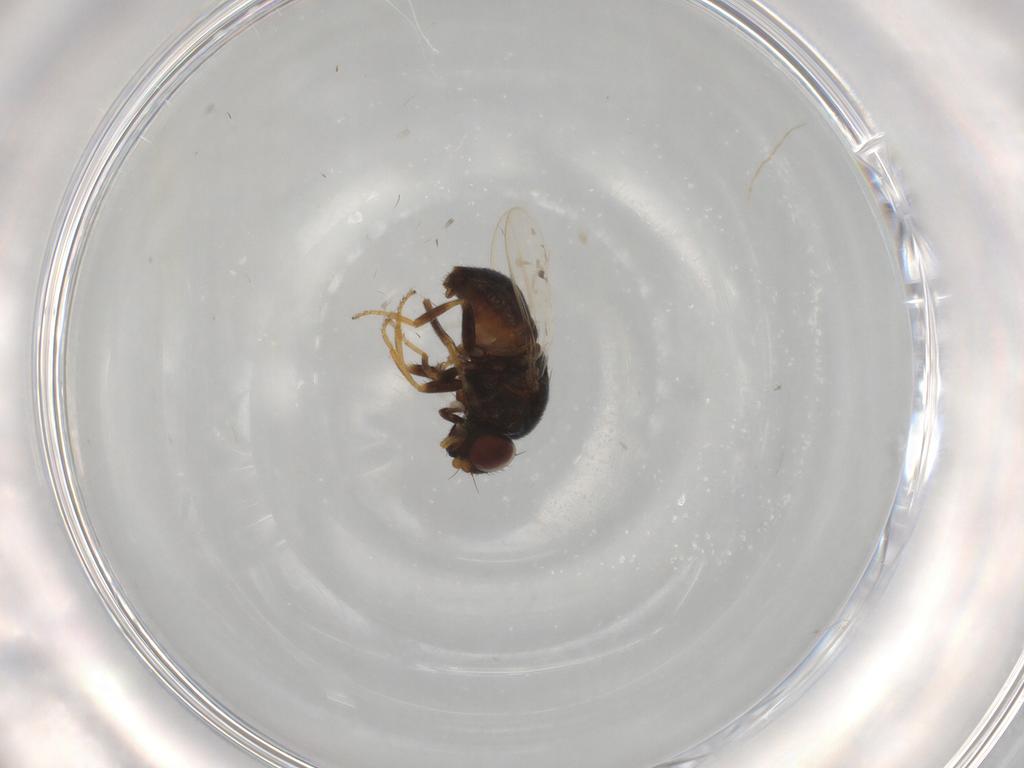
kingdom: Animalia
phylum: Arthropoda
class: Insecta
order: Diptera
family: Chloropidae
